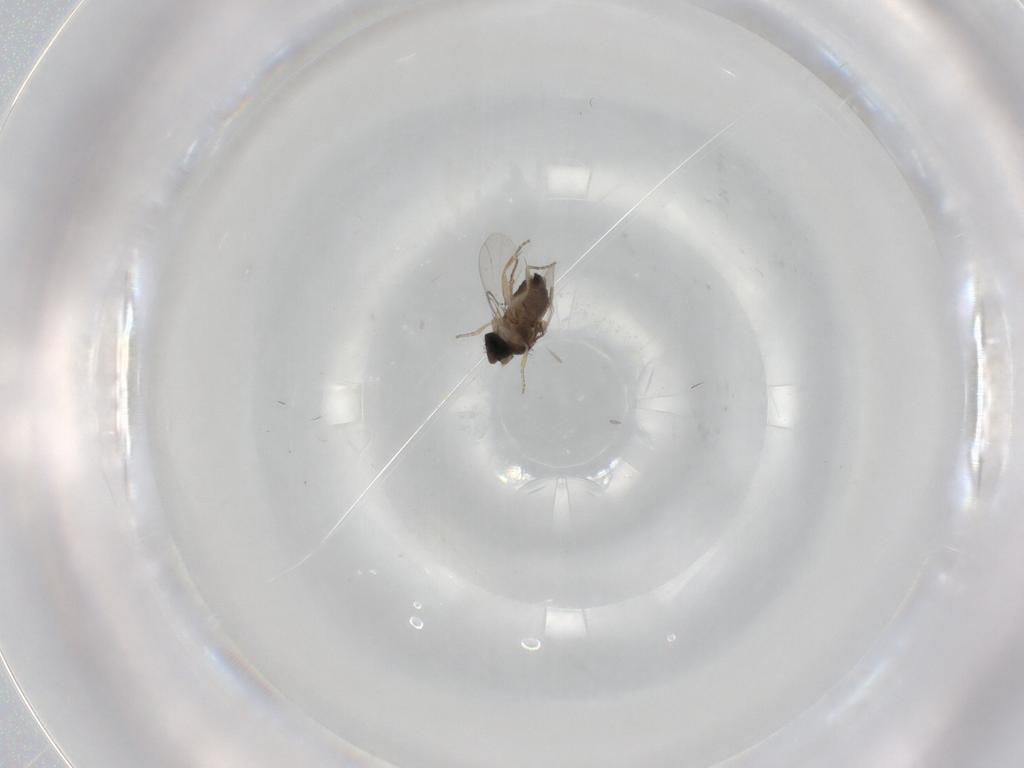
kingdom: Animalia
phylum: Arthropoda
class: Insecta
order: Diptera
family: Phoridae
